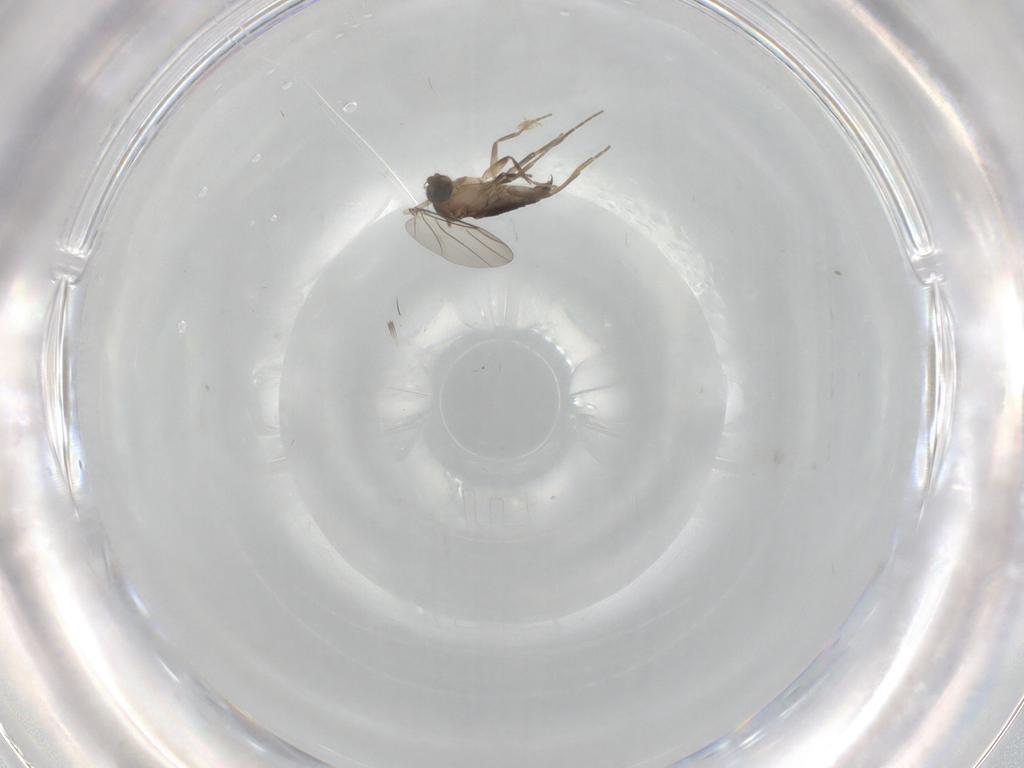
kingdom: Animalia
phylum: Arthropoda
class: Insecta
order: Diptera
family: Phoridae
